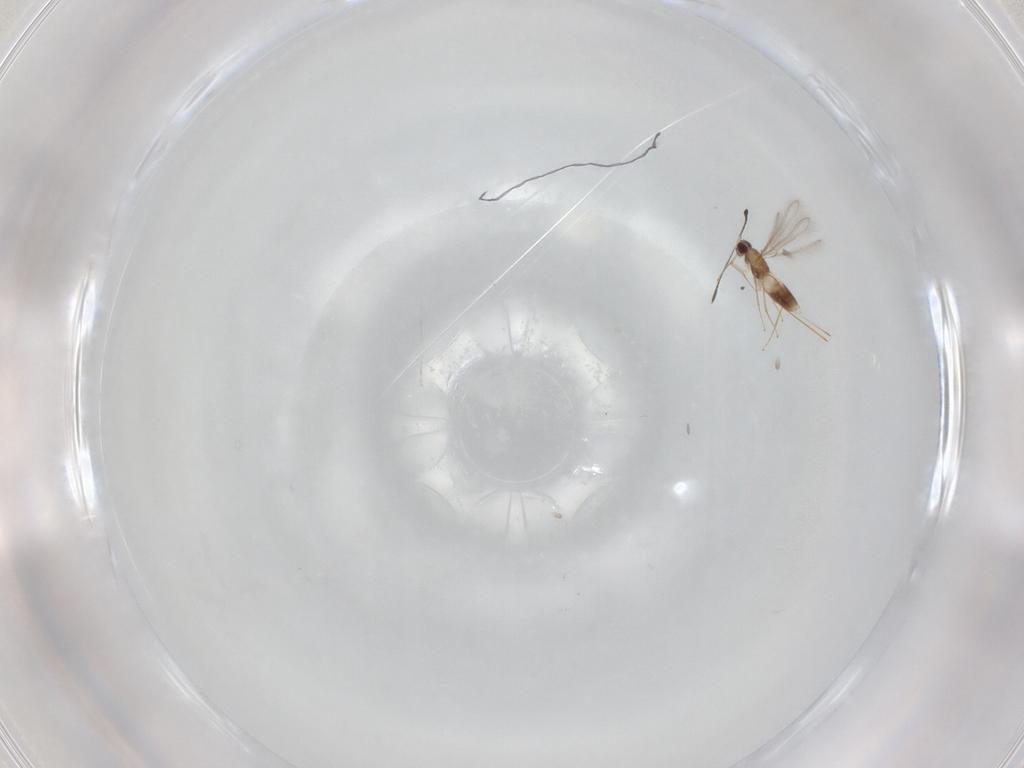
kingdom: Animalia
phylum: Arthropoda
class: Insecta
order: Hymenoptera
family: Mymaridae
